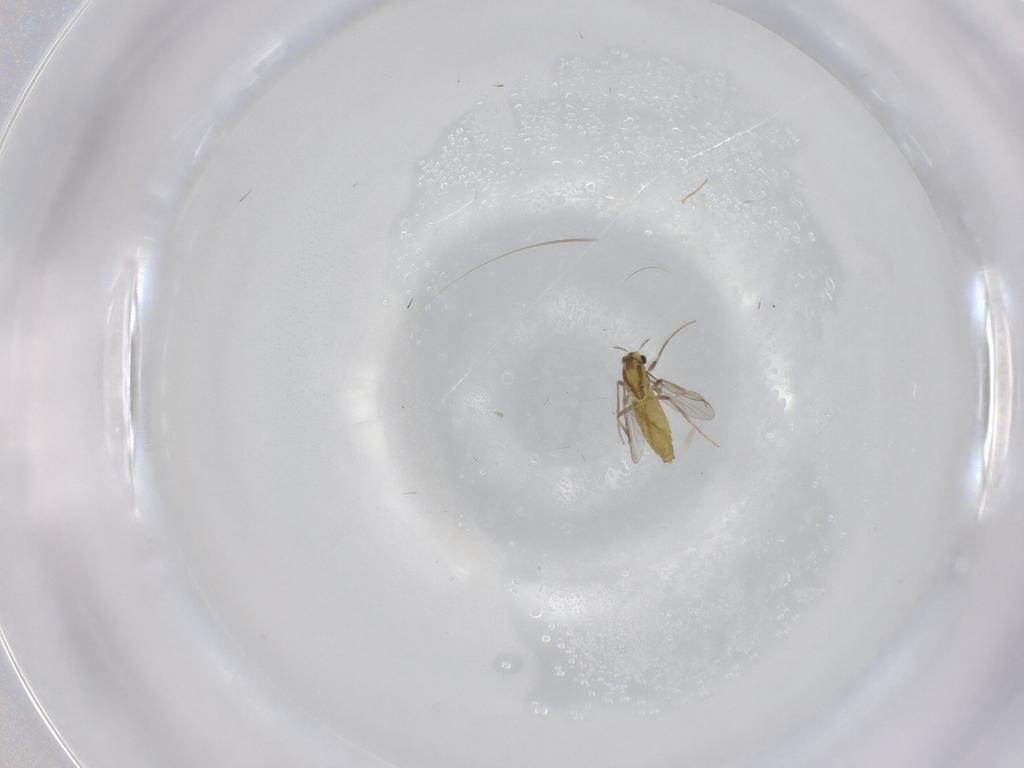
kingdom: Animalia
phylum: Arthropoda
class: Insecta
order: Diptera
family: Chironomidae
